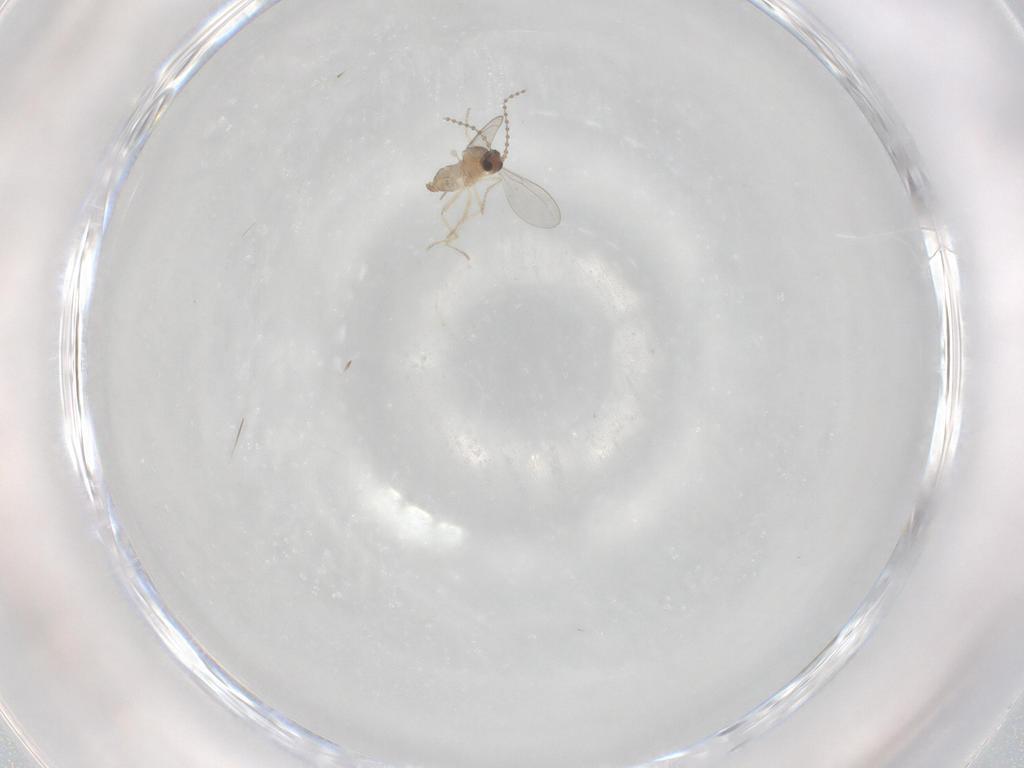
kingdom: Animalia
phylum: Arthropoda
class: Insecta
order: Diptera
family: Cecidomyiidae
